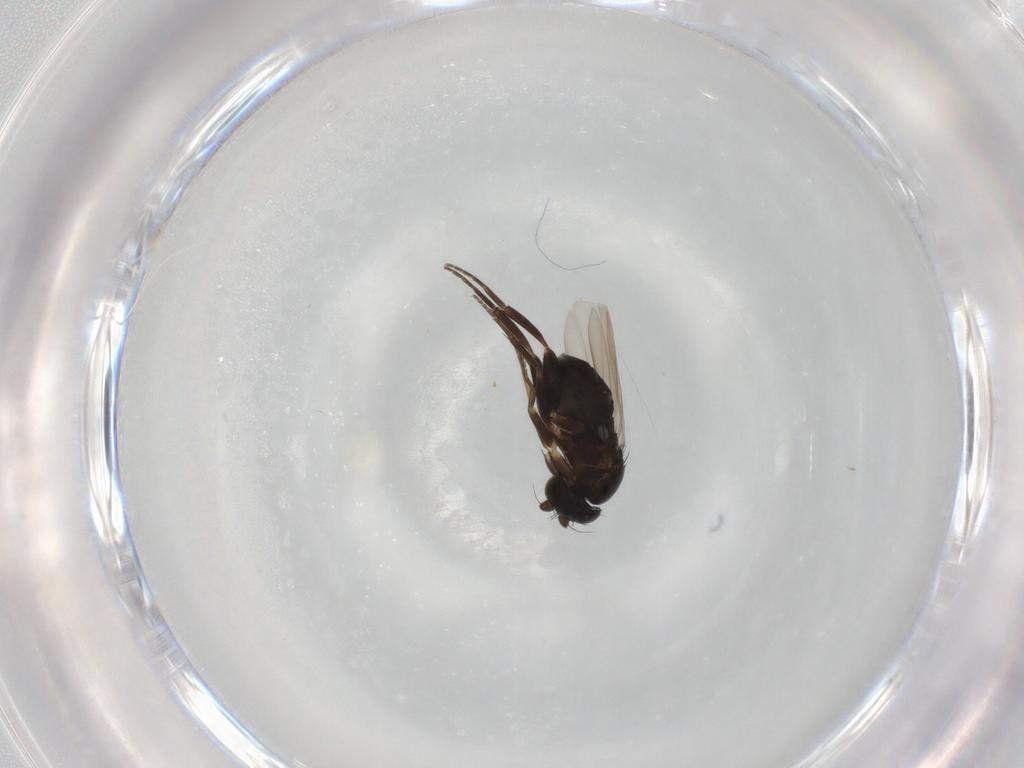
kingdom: Animalia
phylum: Arthropoda
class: Insecta
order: Diptera
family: Phoridae
